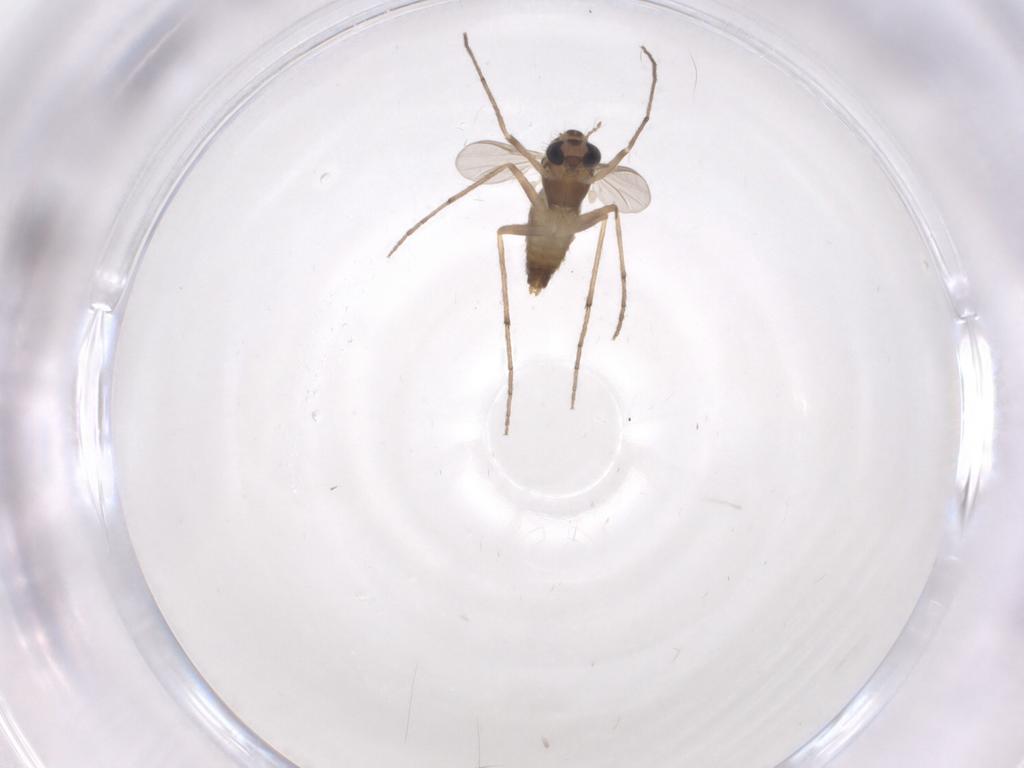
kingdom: Animalia
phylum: Arthropoda
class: Insecta
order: Diptera
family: Chironomidae
